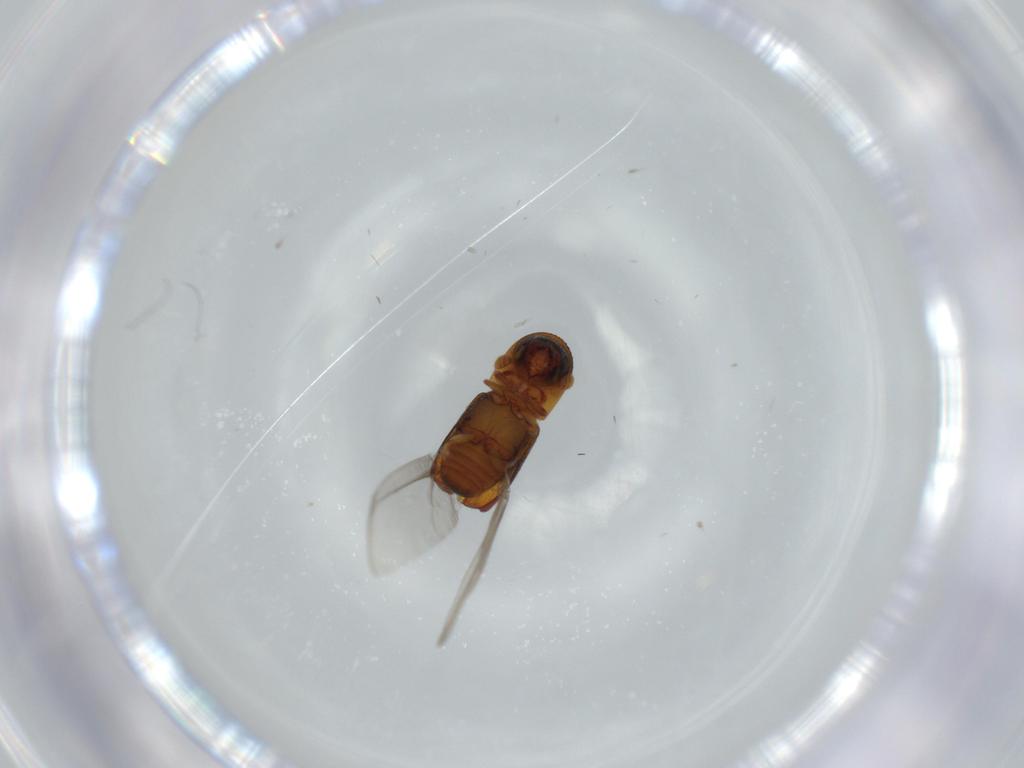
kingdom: Animalia
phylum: Arthropoda
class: Insecta
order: Coleoptera
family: Curculionidae
